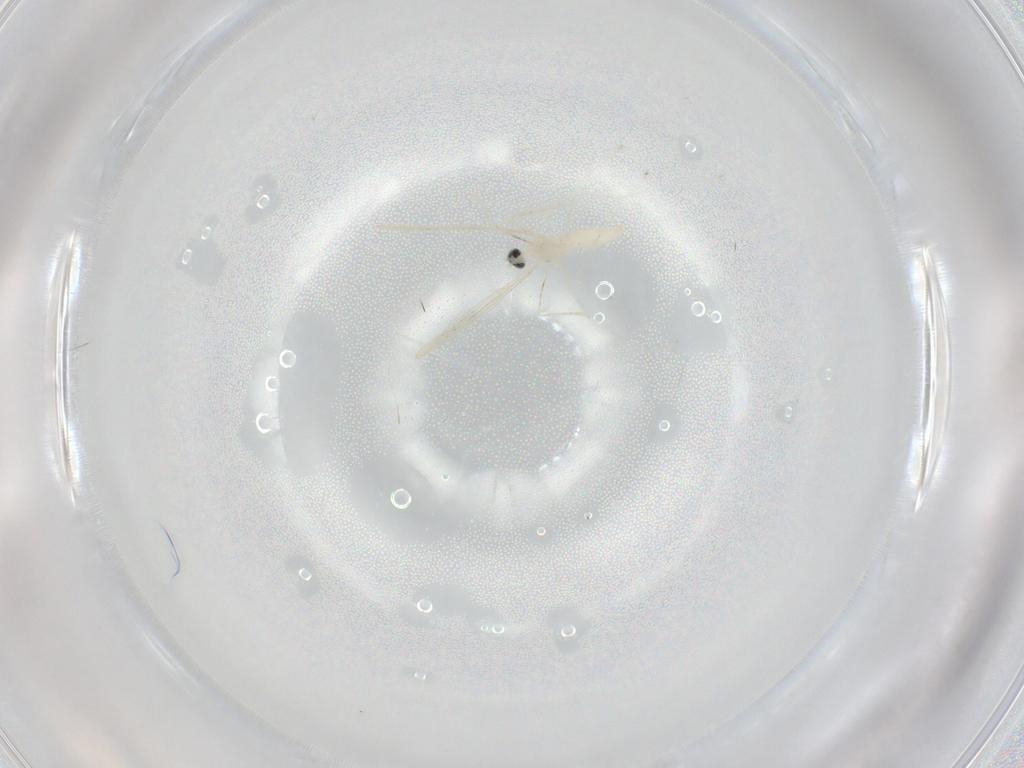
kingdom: Animalia
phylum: Arthropoda
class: Insecta
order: Diptera
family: Cecidomyiidae
